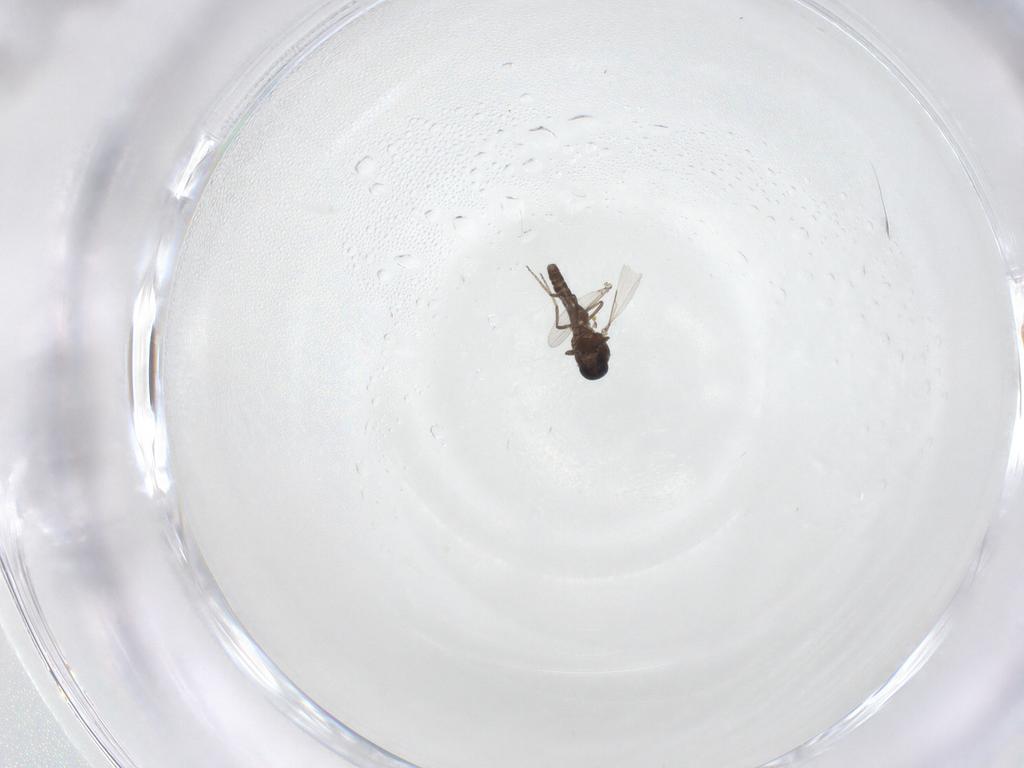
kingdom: Animalia
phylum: Arthropoda
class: Insecta
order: Diptera
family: Ceratopogonidae
